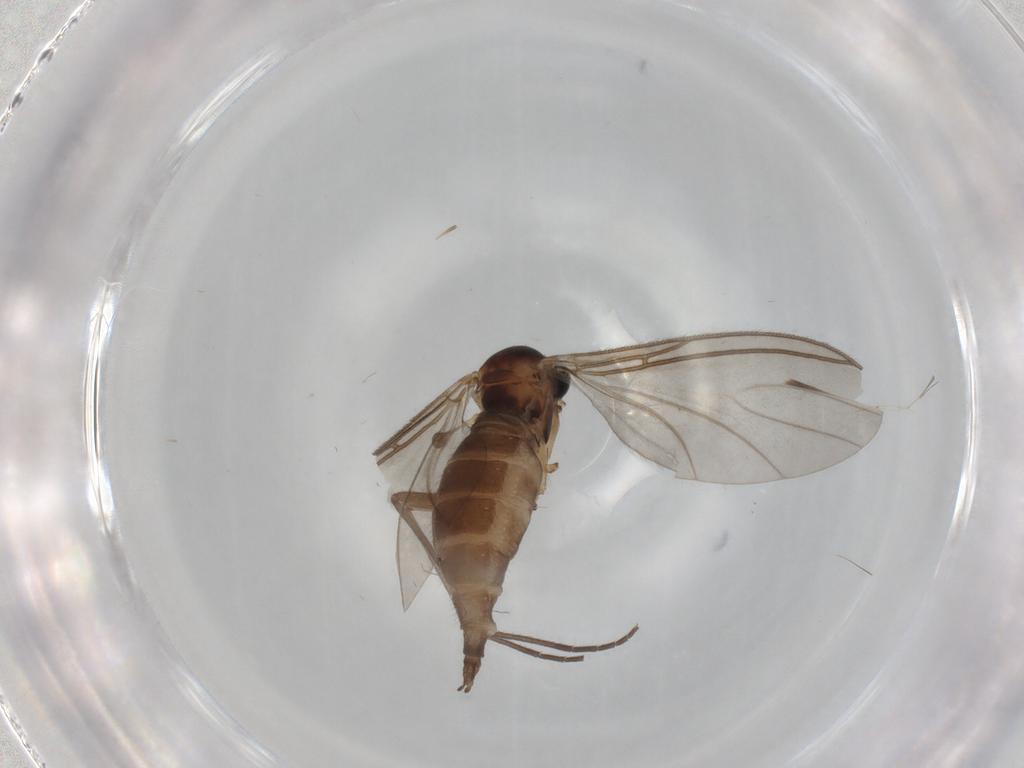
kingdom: Animalia
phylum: Arthropoda
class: Insecta
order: Diptera
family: Sciaridae
